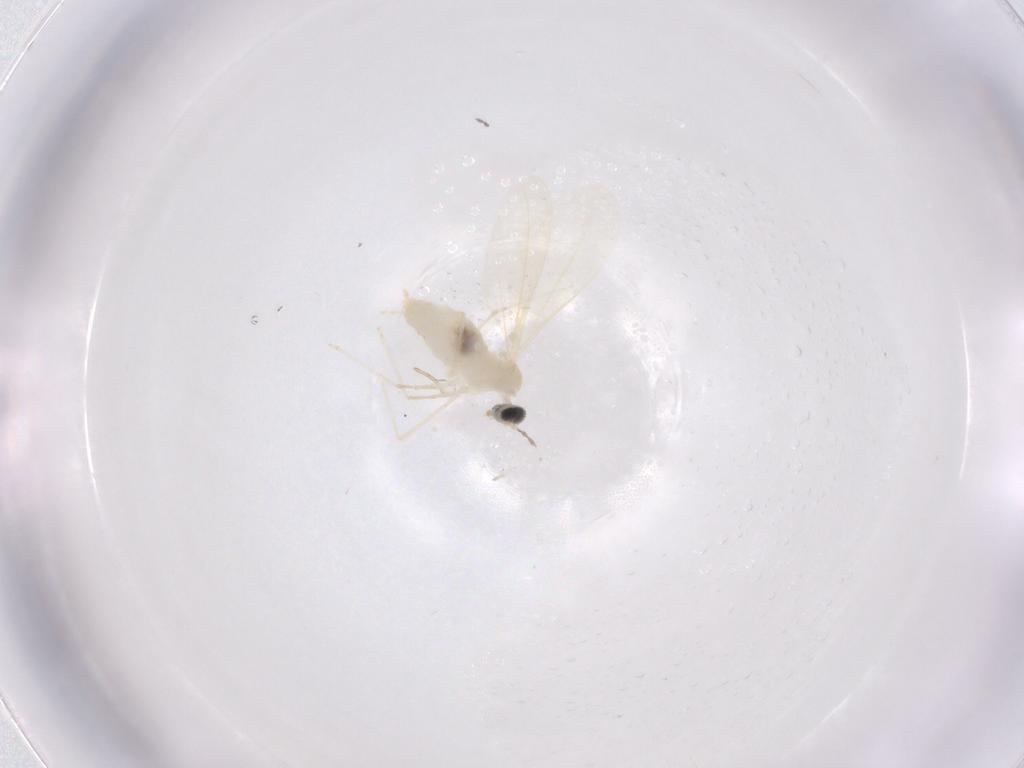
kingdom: Animalia
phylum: Arthropoda
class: Insecta
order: Diptera
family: Cecidomyiidae
